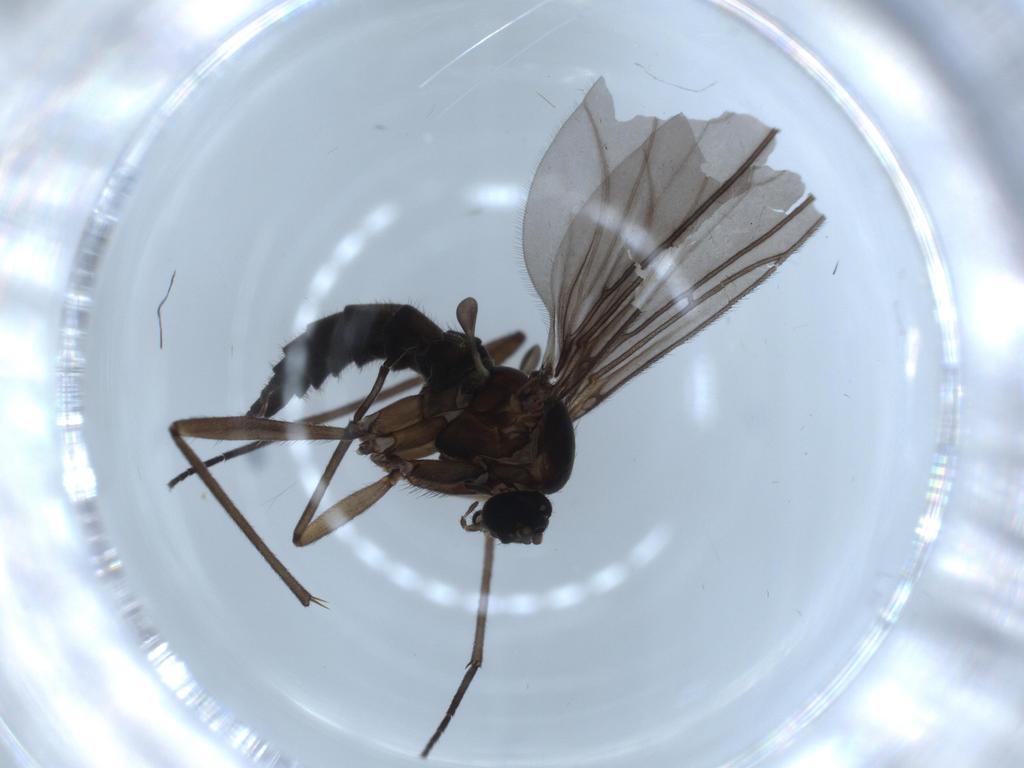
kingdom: Animalia
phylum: Arthropoda
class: Insecta
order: Diptera
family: Sciaridae
